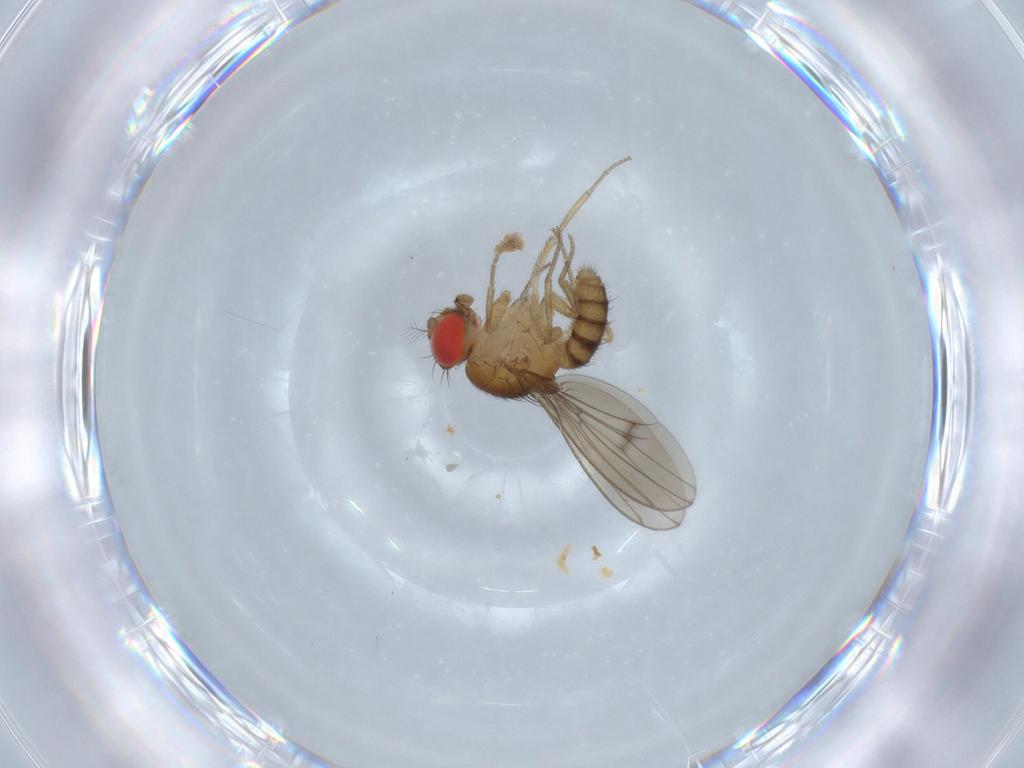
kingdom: Animalia
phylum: Arthropoda
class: Insecta
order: Diptera
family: Drosophilidae
